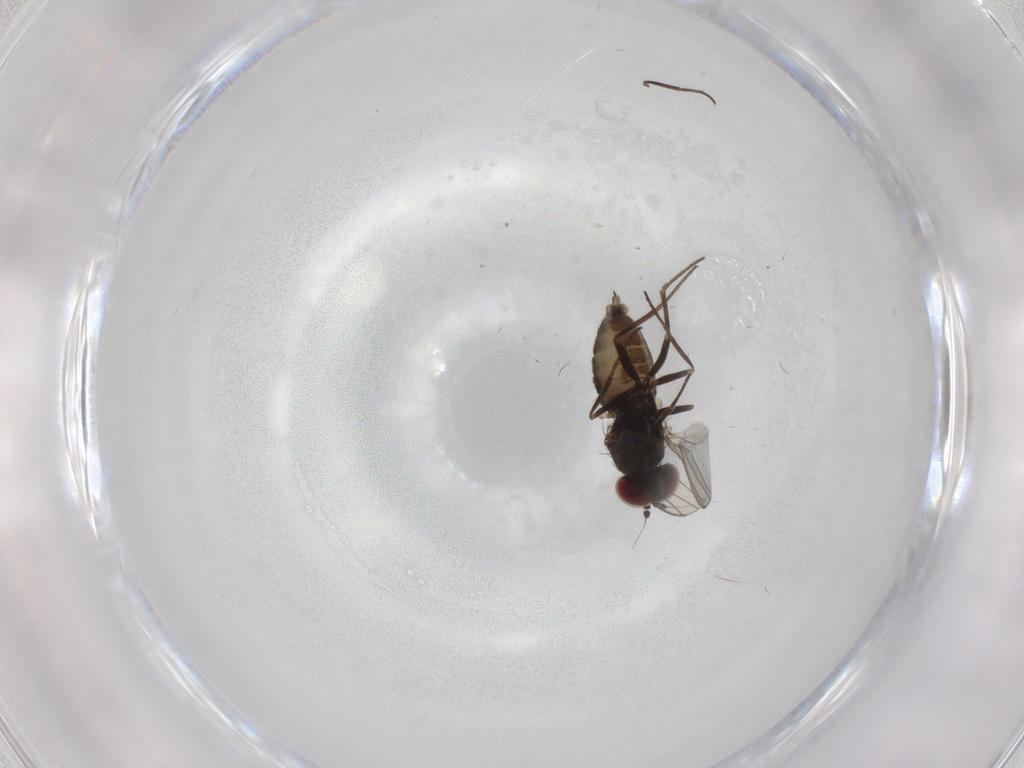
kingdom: Animalia
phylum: Arthropoda
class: Insecta
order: Diptera
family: Dolichopodidae
